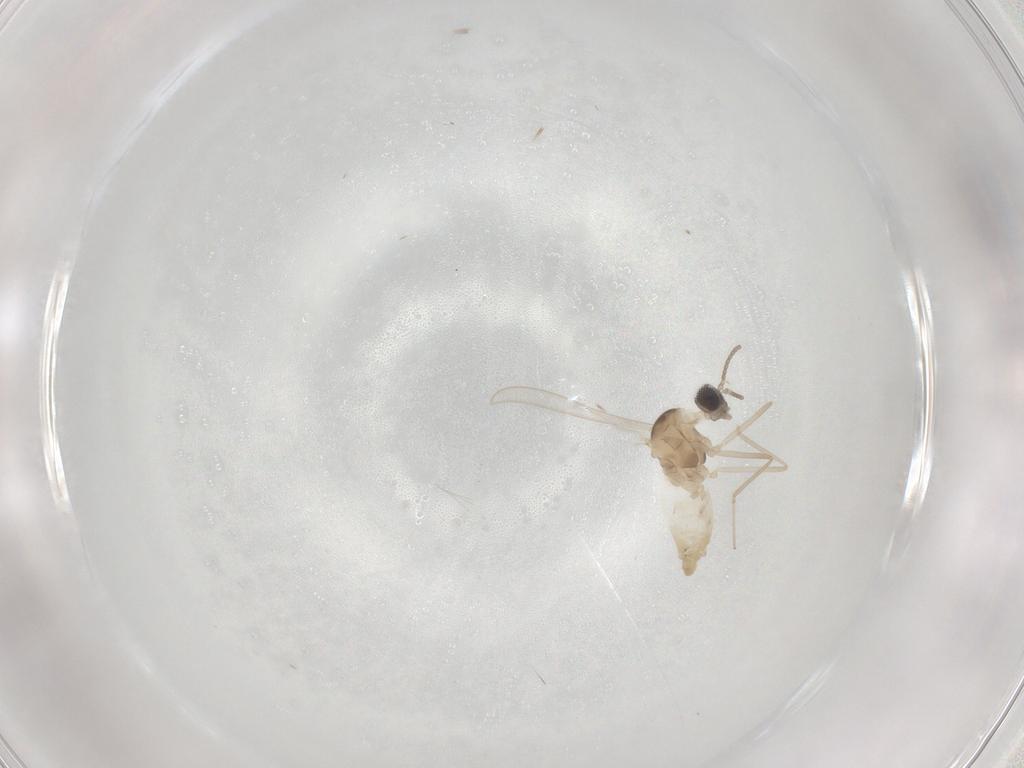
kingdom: Animalia
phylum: Arthropoda
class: Insecta
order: Diptera
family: Cecidomyiidae
